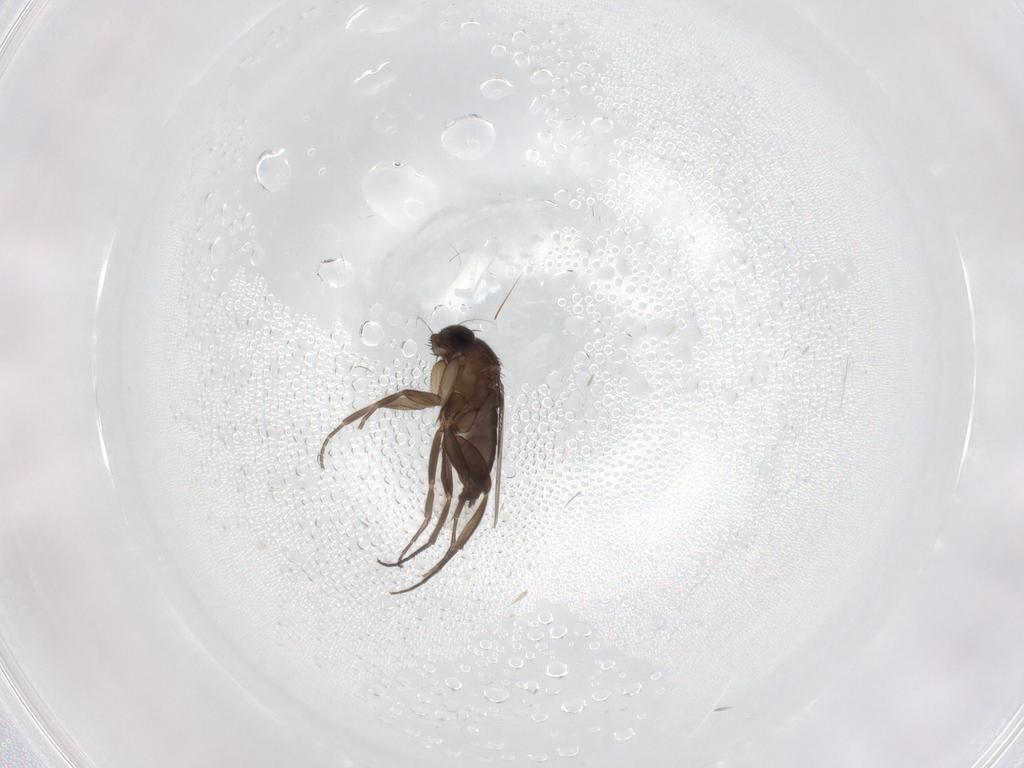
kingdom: Animalia
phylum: Arthropoda
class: Insecta
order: Diptera
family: Phoridae
